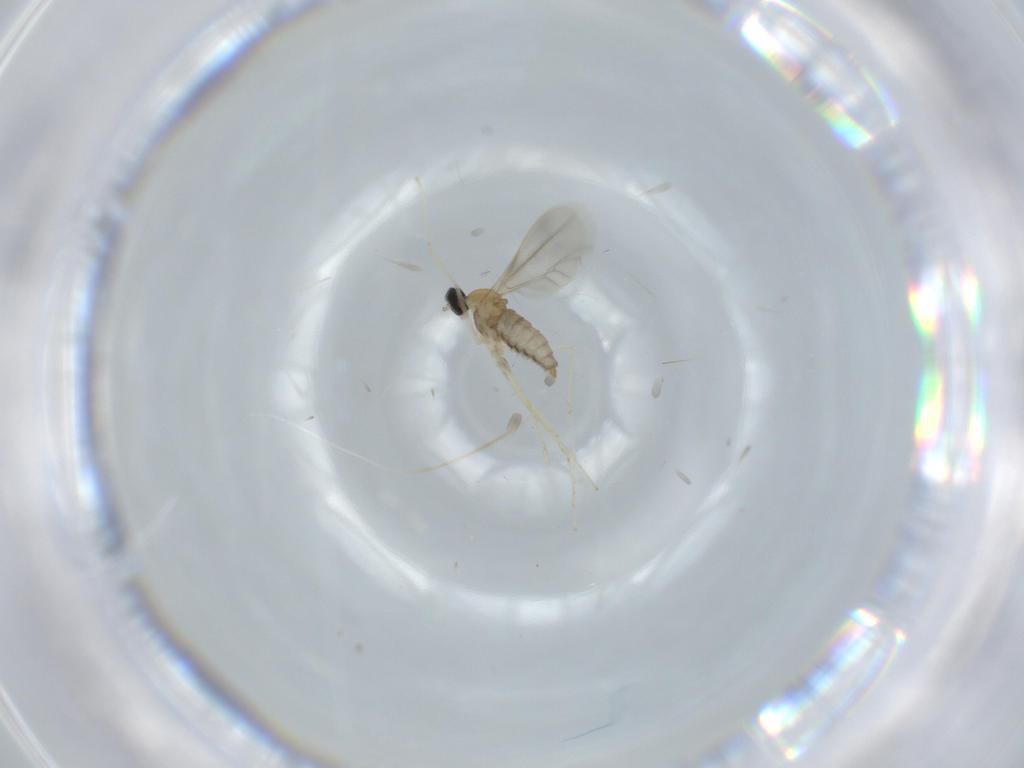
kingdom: Animalia
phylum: Arthropoda
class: Insecta
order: Diptera
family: Cecidomyiidae
